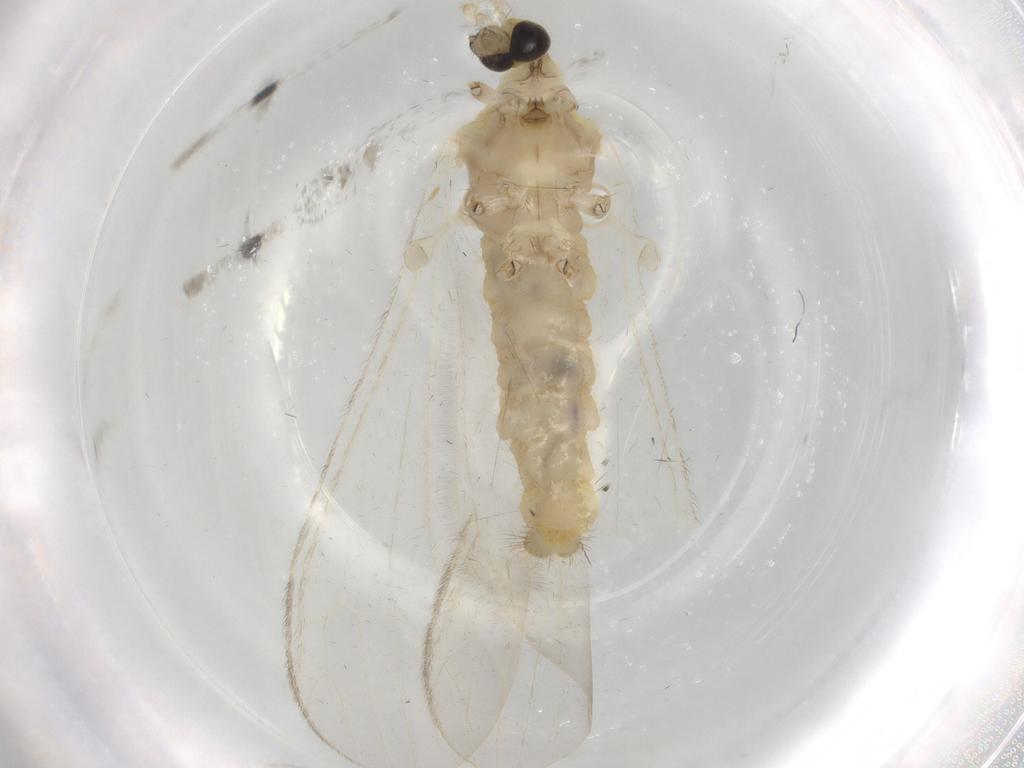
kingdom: Animalia
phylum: Arthropoda
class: Insecta
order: Diptera
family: Limoniidae
